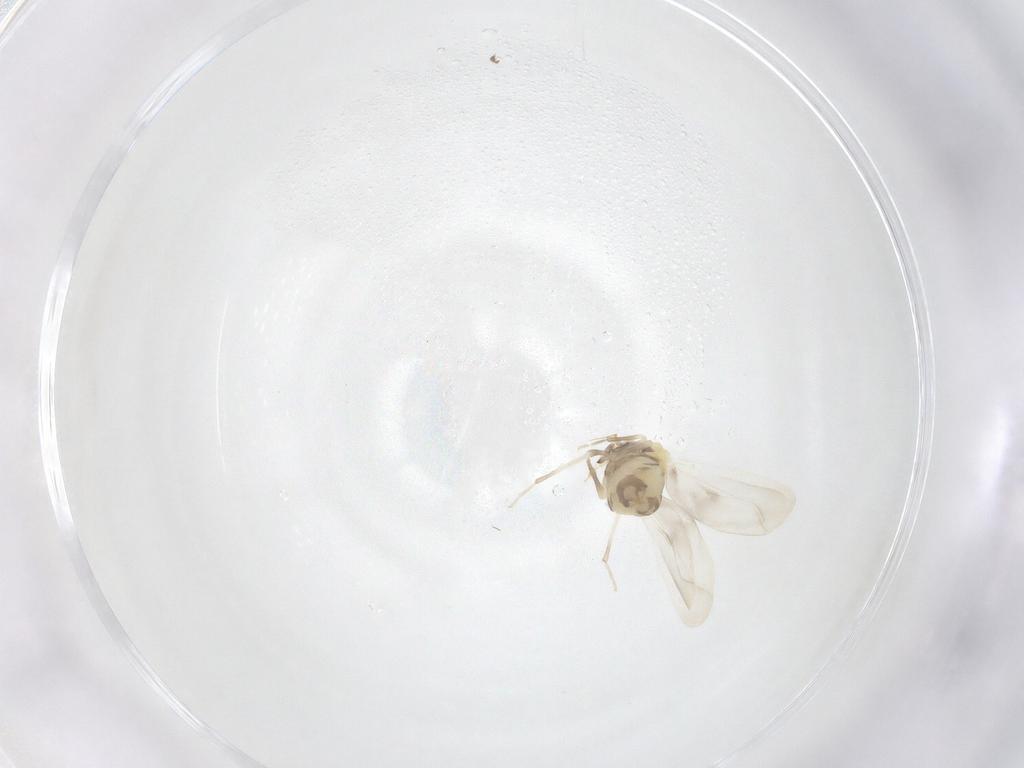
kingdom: Animalia
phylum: Arthropoda
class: Insecta
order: Hemiptera
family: Aleyrodidae
